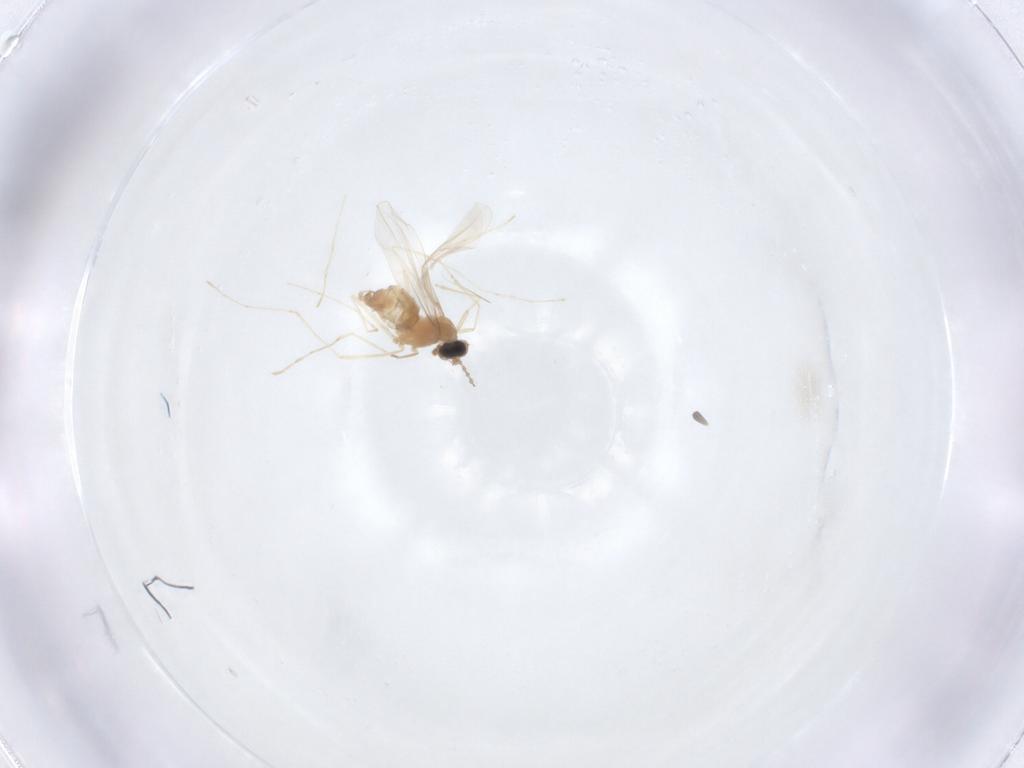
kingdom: Animalia
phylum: Arthropoda
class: Insecta
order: Diptera
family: Cecidomyiidae
